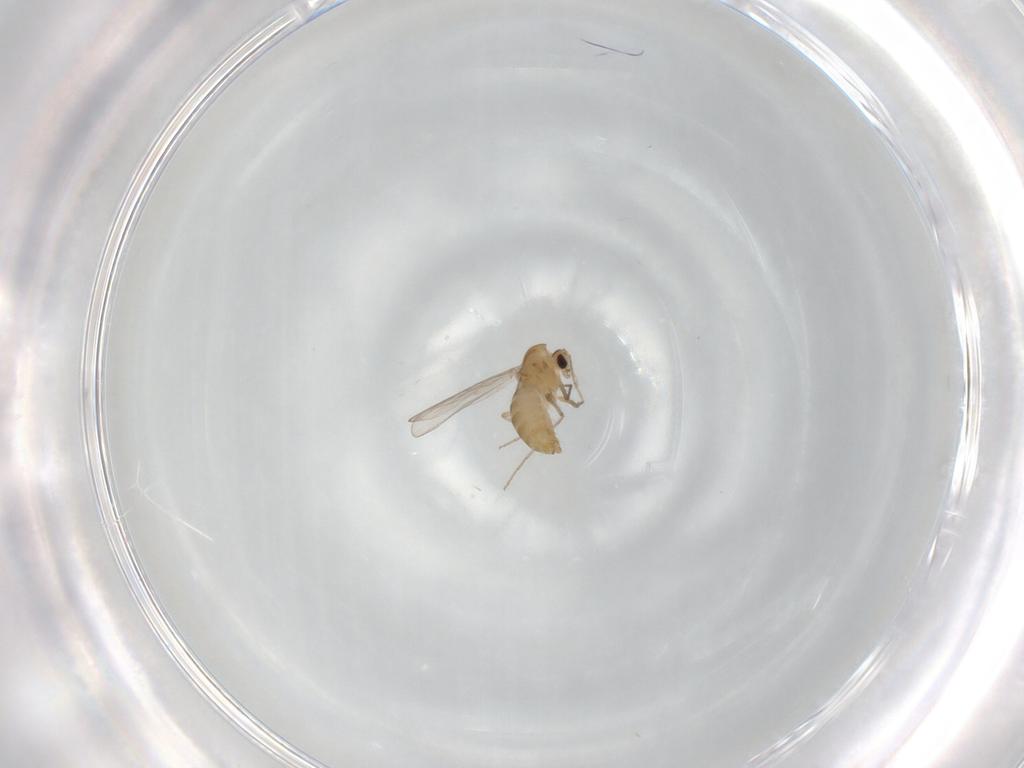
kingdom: Animalia
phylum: Arthropoda
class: Insecta
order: Diptera
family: Chironomidae
